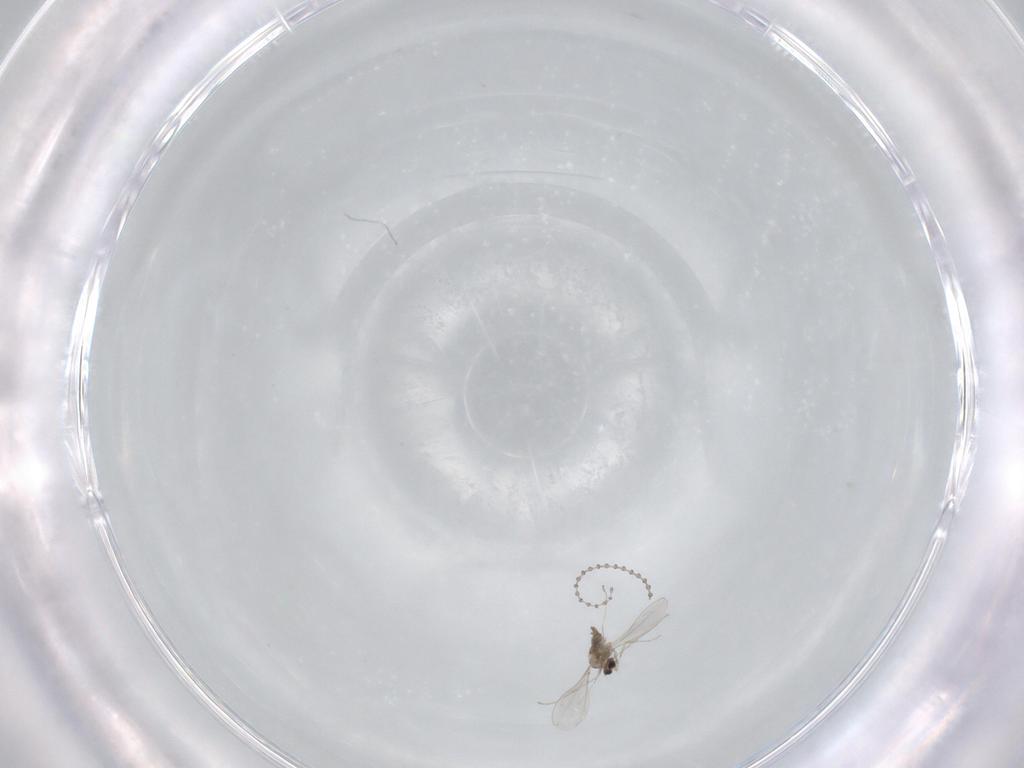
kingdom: Animalia
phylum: Arthropoda
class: Insecta
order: Diptera
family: Cecidomyiidae
